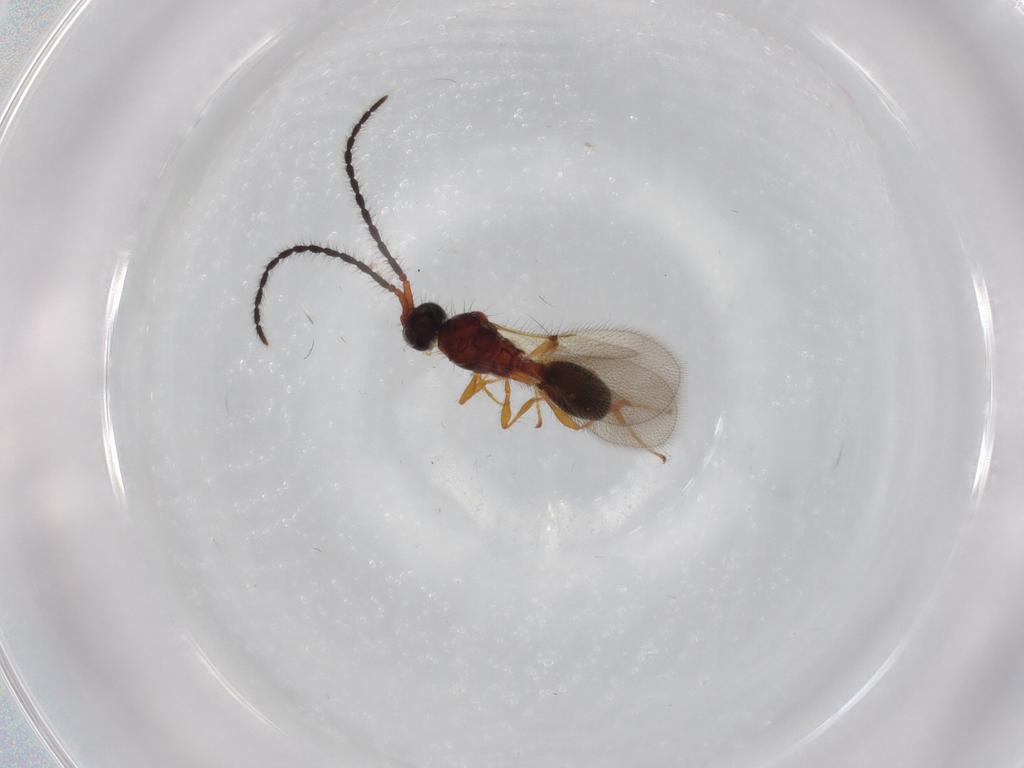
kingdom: Animalia
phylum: Arthropoda
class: Insecta
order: Hymenoptera
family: Diapriidae
